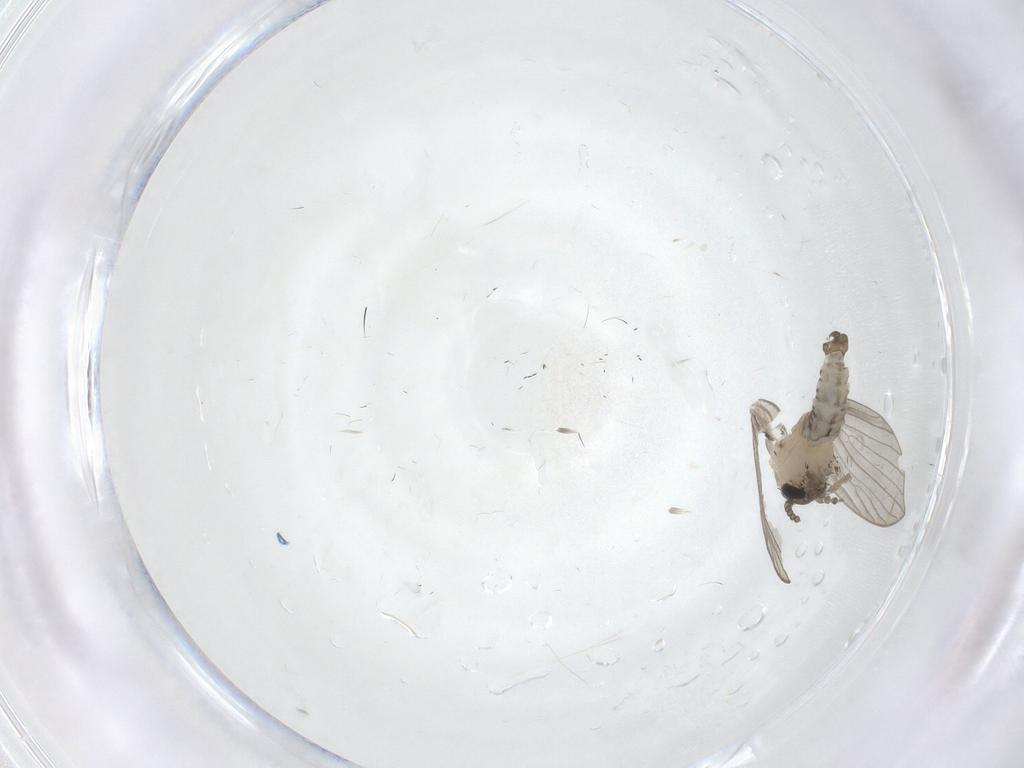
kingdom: Animalia
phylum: Arthropoda
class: Insecta
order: Diptera
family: Psychodidae
